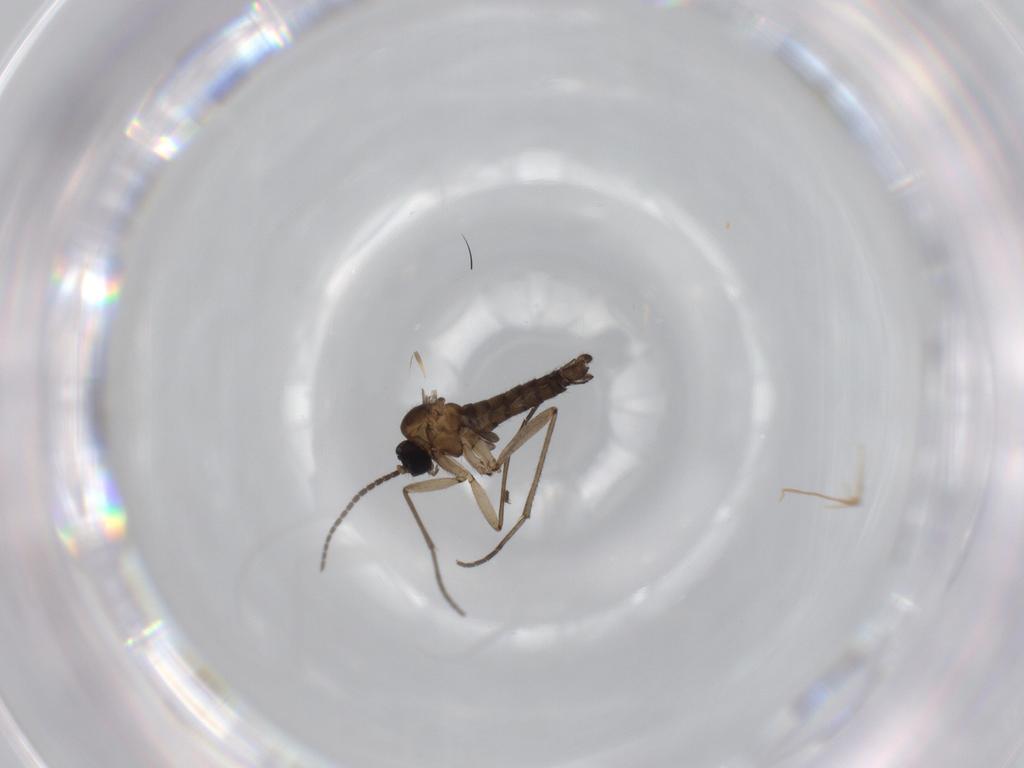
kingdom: Animalia
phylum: Arthropoda
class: Insecta
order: Diptera
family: Sciaridae
